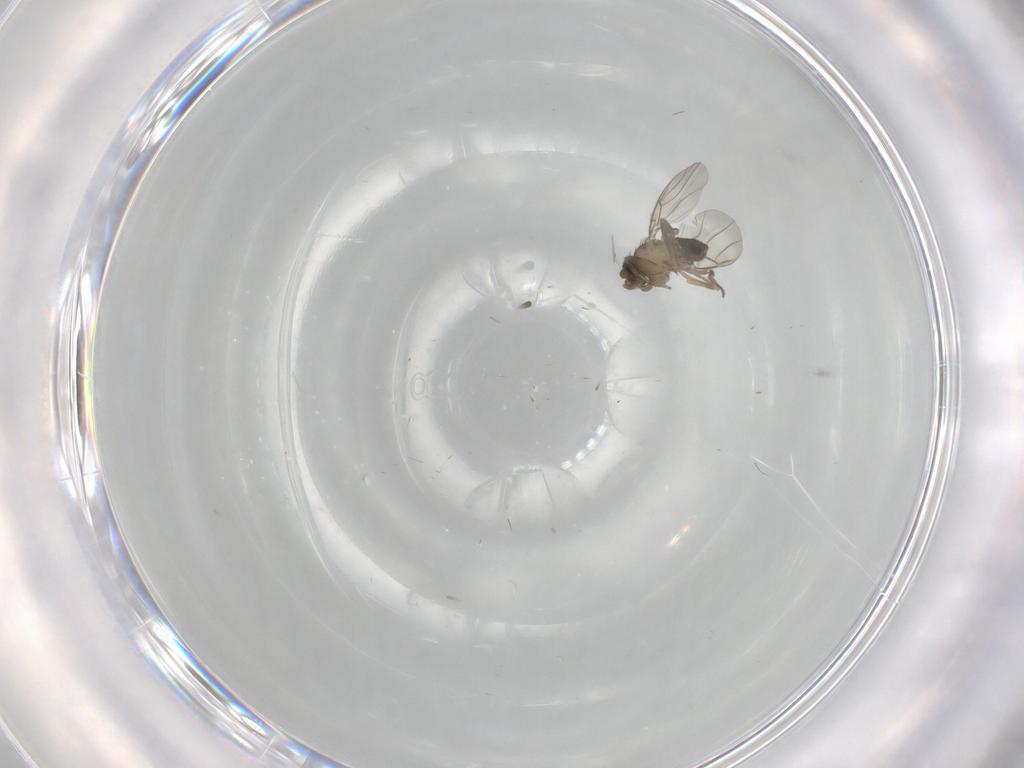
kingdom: Animalia
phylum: Arthropoda
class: Insecta
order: Diptera
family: Phoridae
